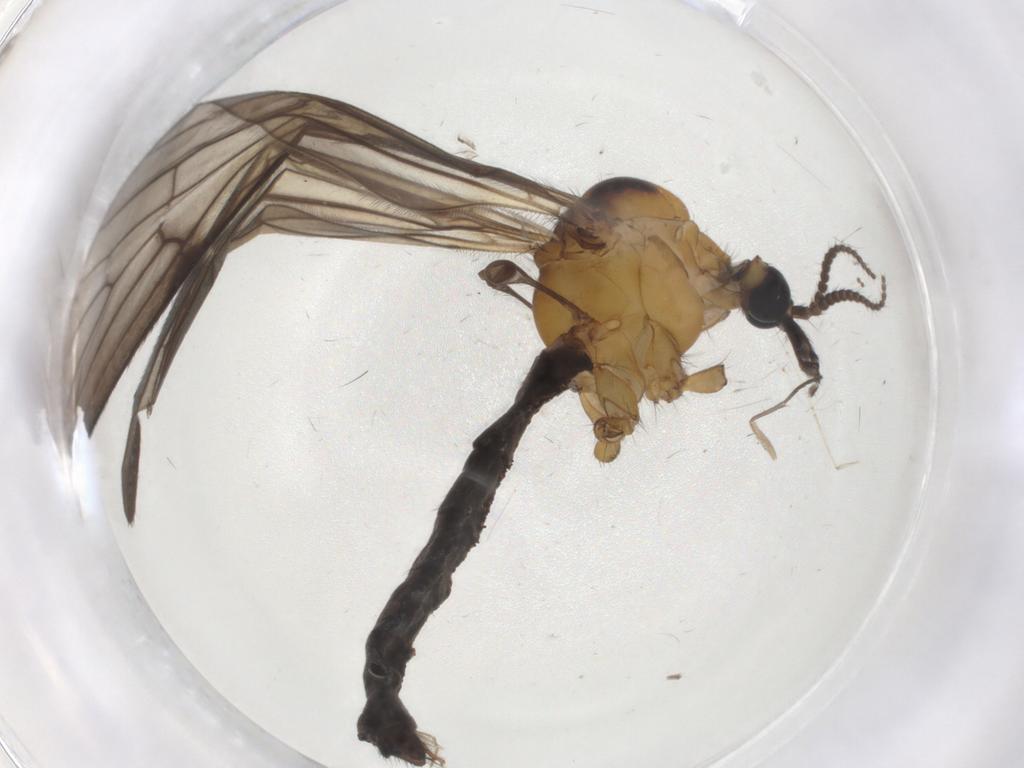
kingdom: Animalia
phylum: Arthropoda
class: Insecta
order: Diptera
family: Limoniidae
